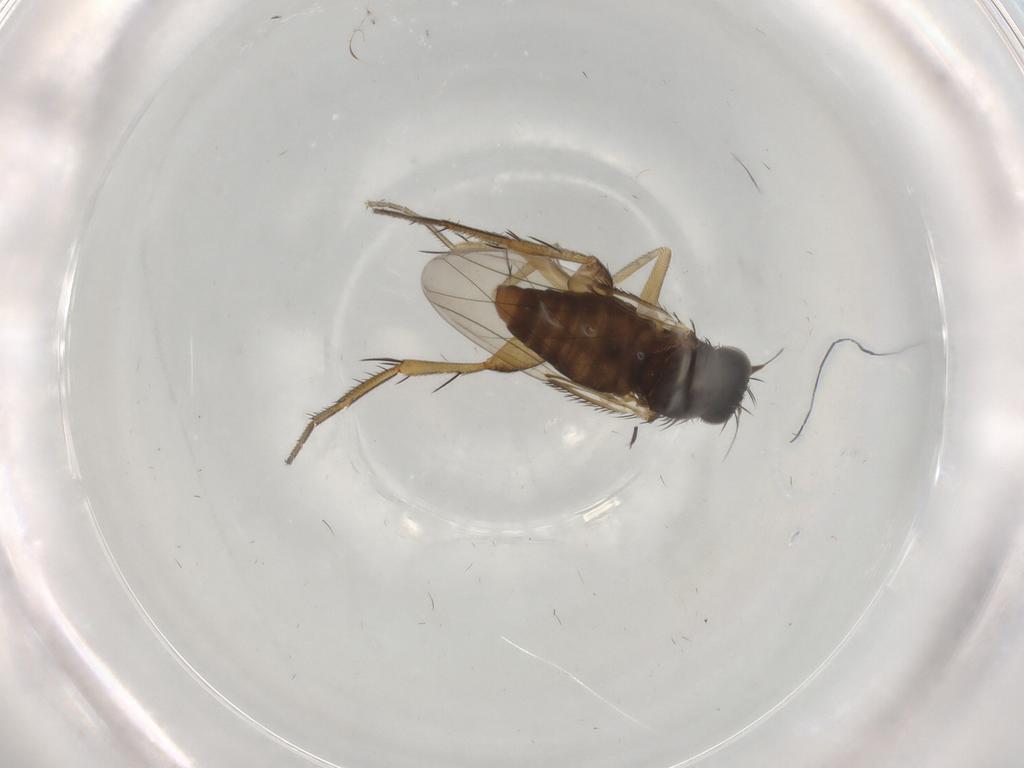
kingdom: Animalia
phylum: Arthropoda
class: Insecta
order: Diptera
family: Phoridae
